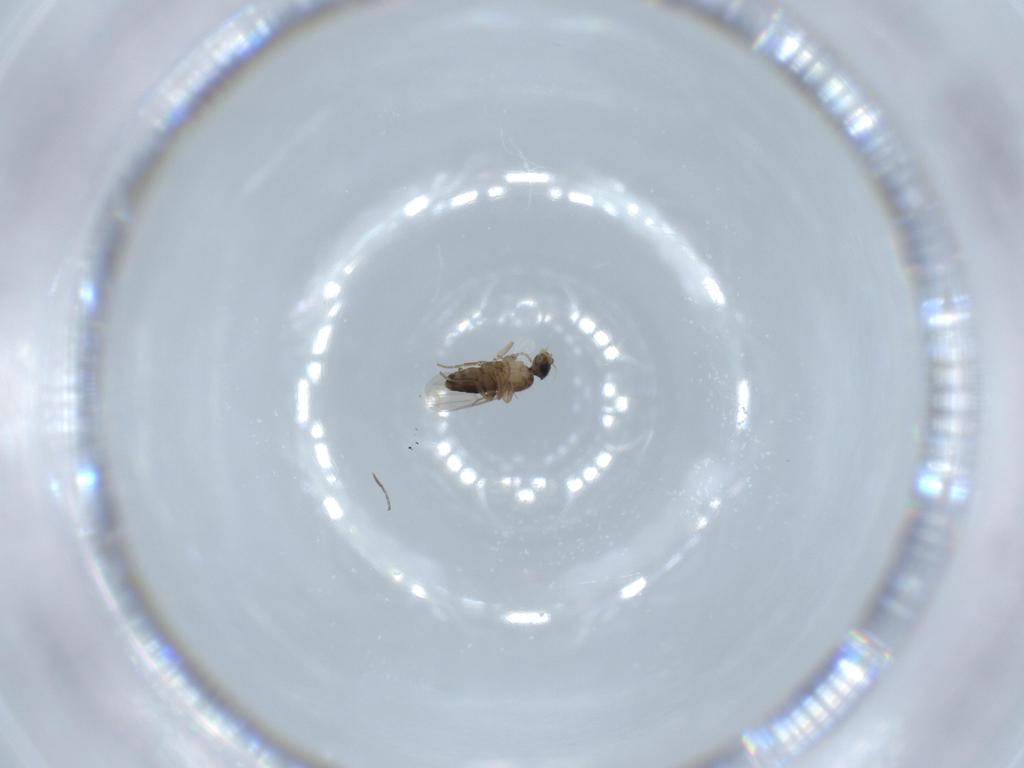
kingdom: Animalia
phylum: Arthropoda
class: Insecta
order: Diptera
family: Phoridae
